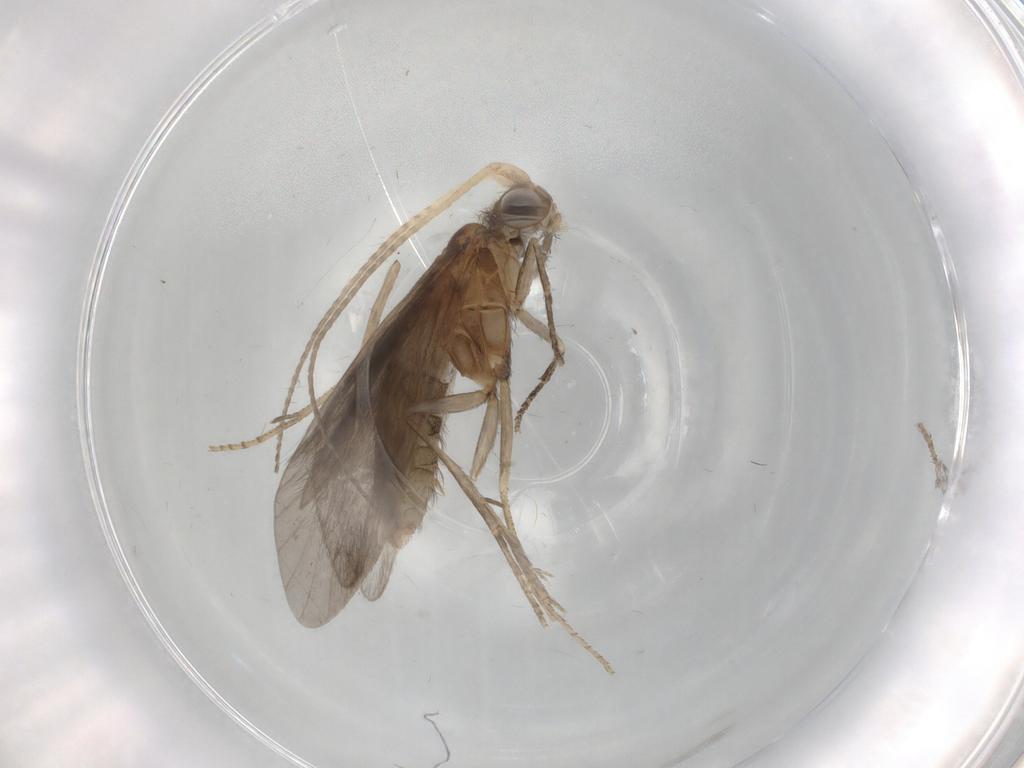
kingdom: Animalia
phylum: Arthropoda
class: Insecta
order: Trichoptera
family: Helicopsychidae
